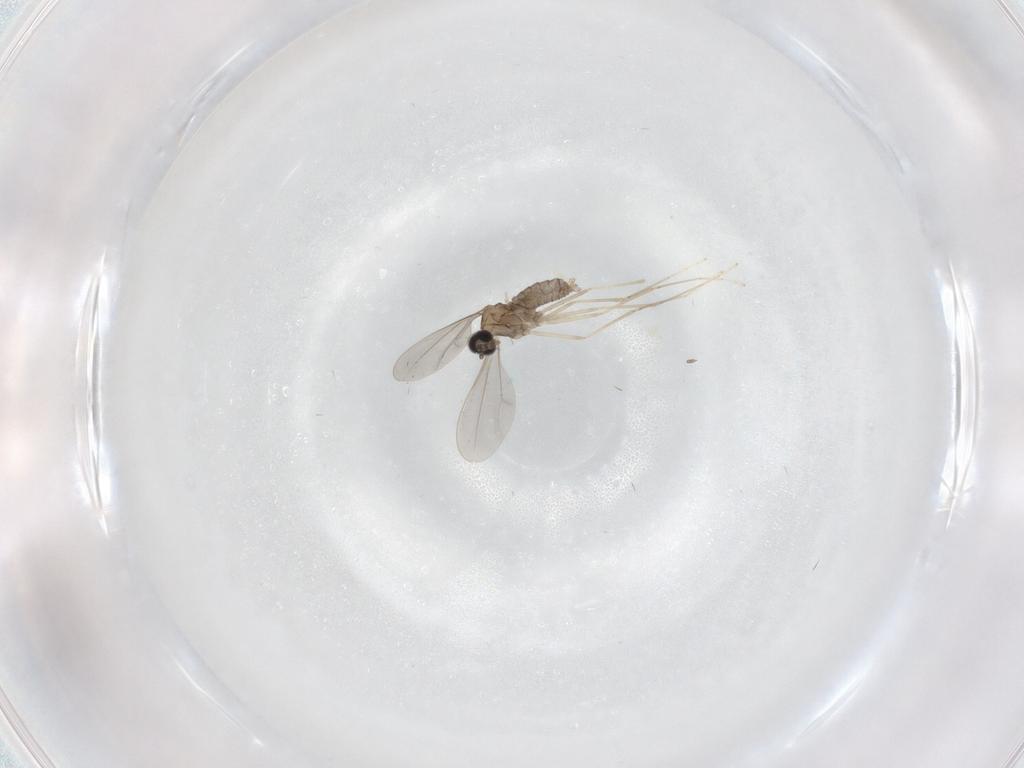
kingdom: Animalia
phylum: Arthropoda
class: Insecta
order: Diptera
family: Cecidomyiidae
